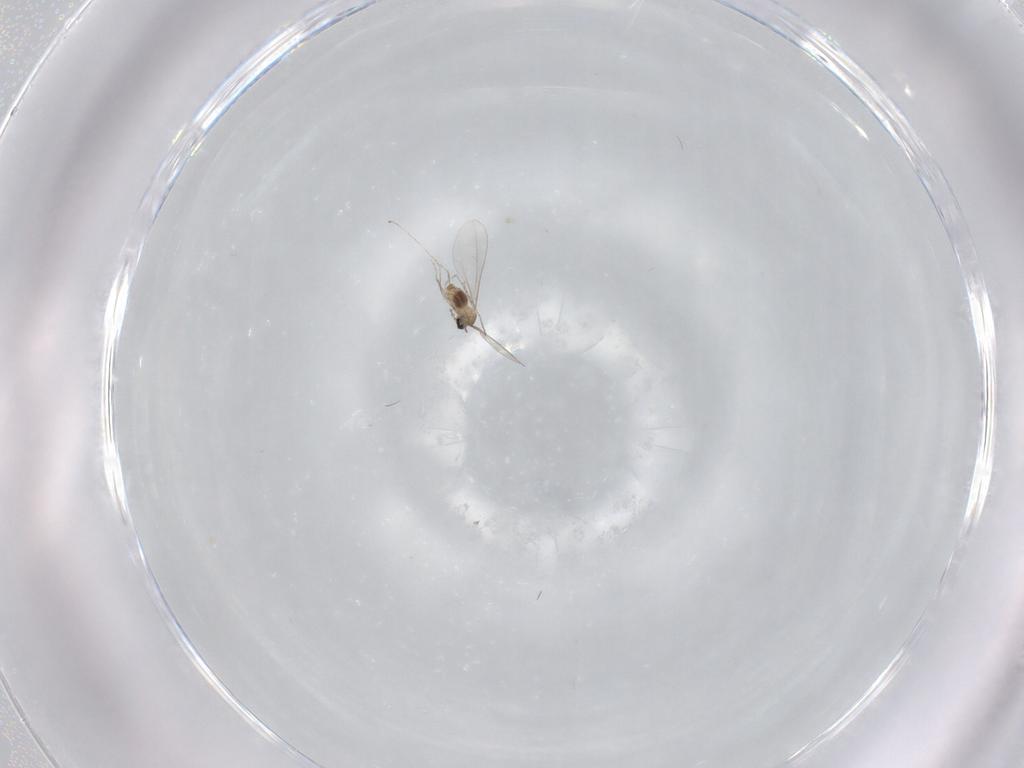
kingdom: Animalia
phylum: Arthropoda
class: Insecta
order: Diptera
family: Cecidomyiidae
